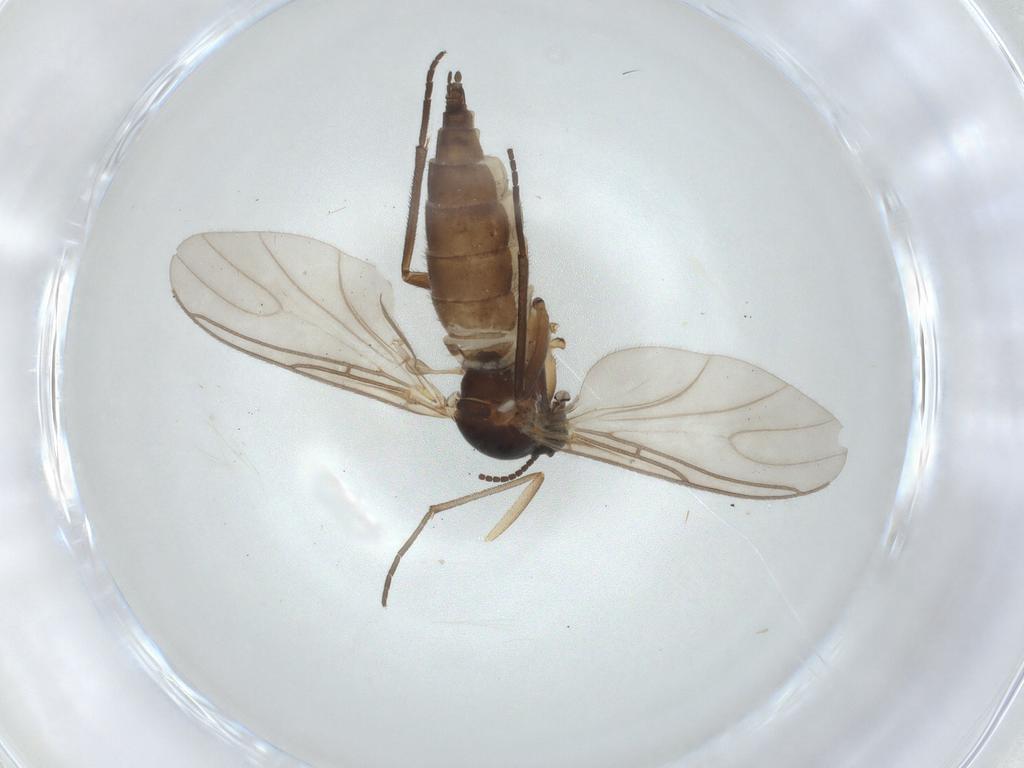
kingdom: Animalia
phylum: Arthropoda
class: Insecta
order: Diptera
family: Sciaridae
